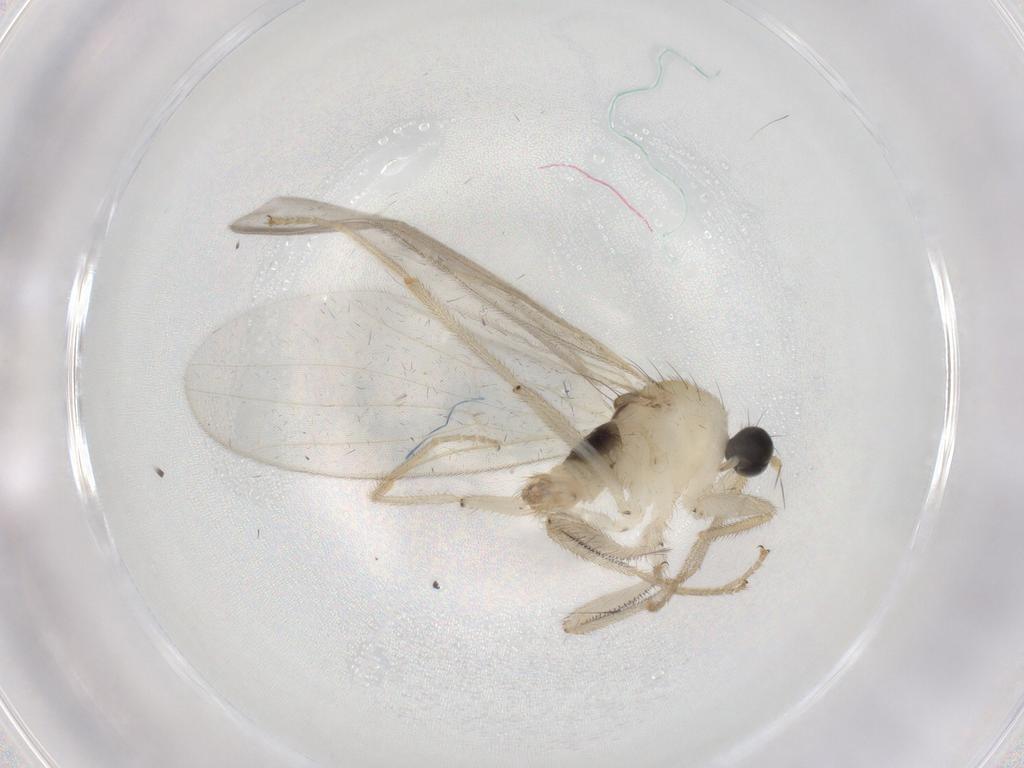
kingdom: Animalia
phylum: Arthropoda
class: Insecta
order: Diptera
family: Hybotidae
